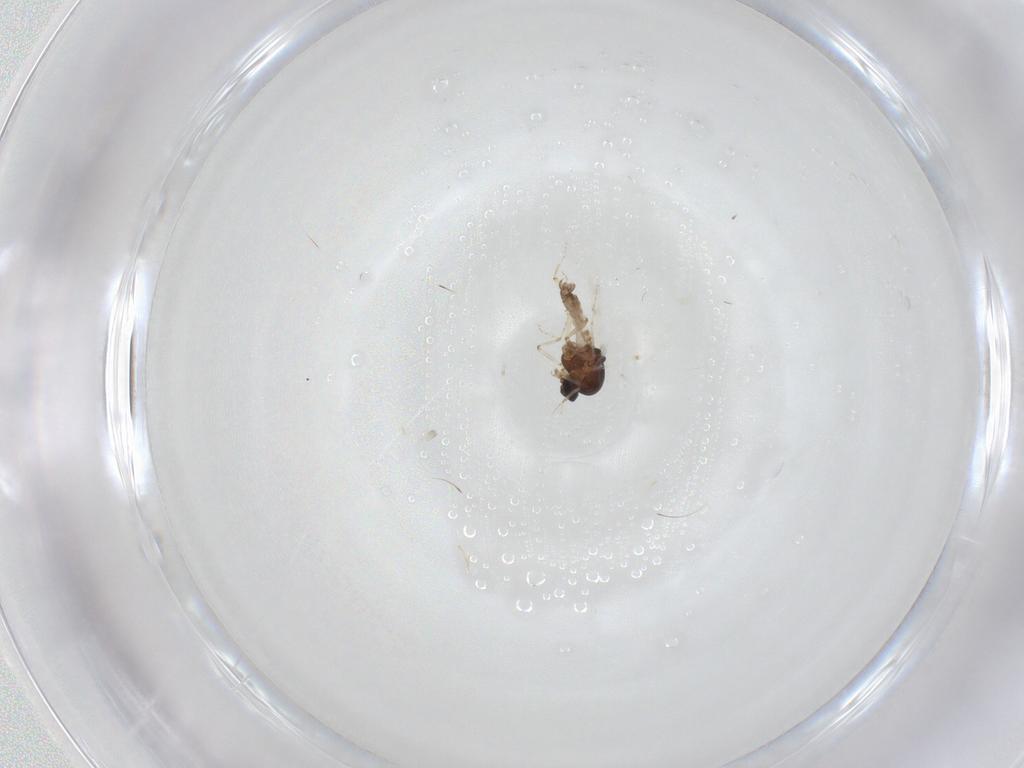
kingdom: Animalia
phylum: Arthropoda
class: Insecta
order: Diptera
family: Ceratopogonidae
